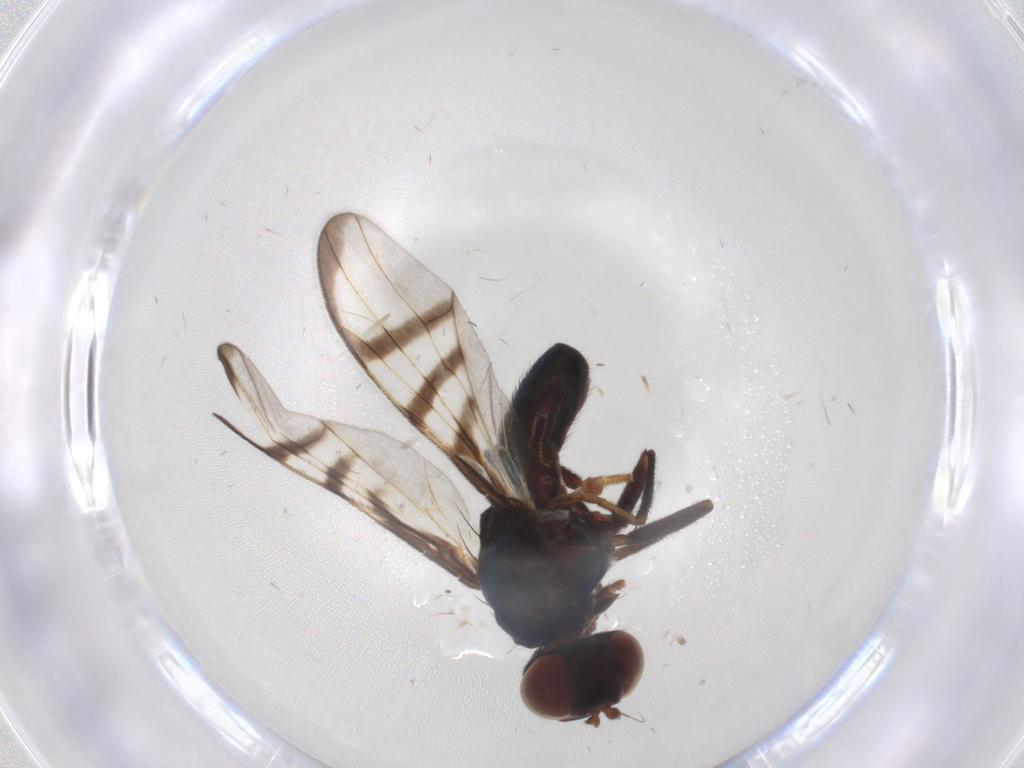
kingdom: Animalia
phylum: Arthropoda
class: Insecta
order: Diptera
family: Platystomatidae
